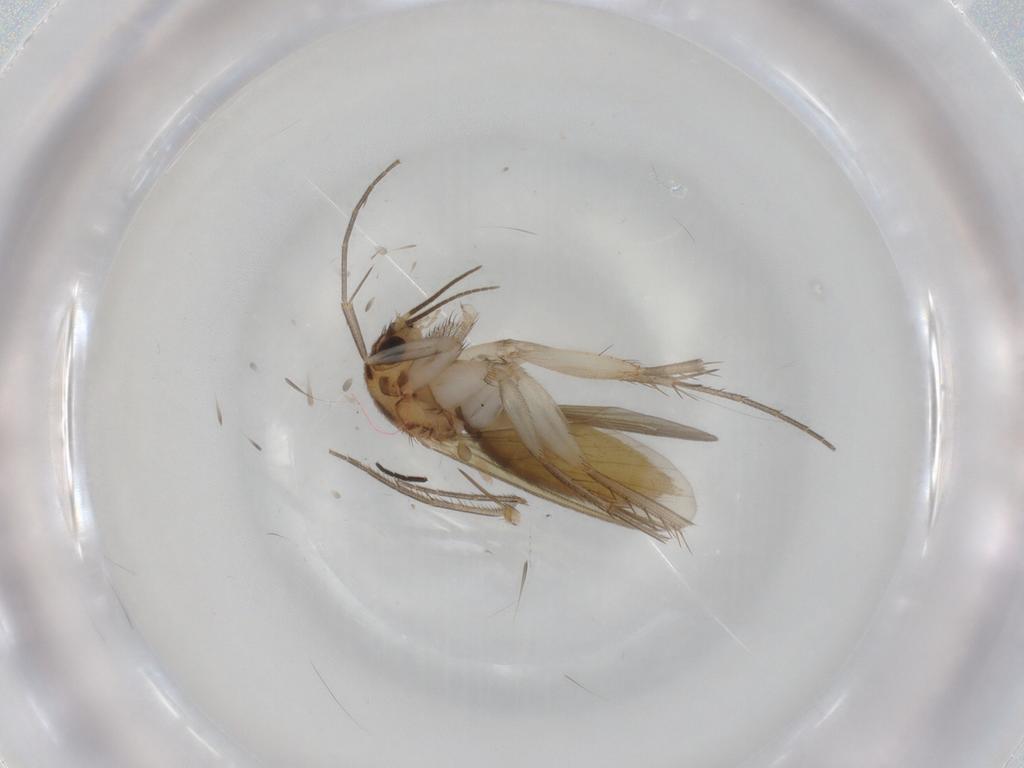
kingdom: Animalia
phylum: Arthropoda
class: Insecta
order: Diptera
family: Mycetophilidae
